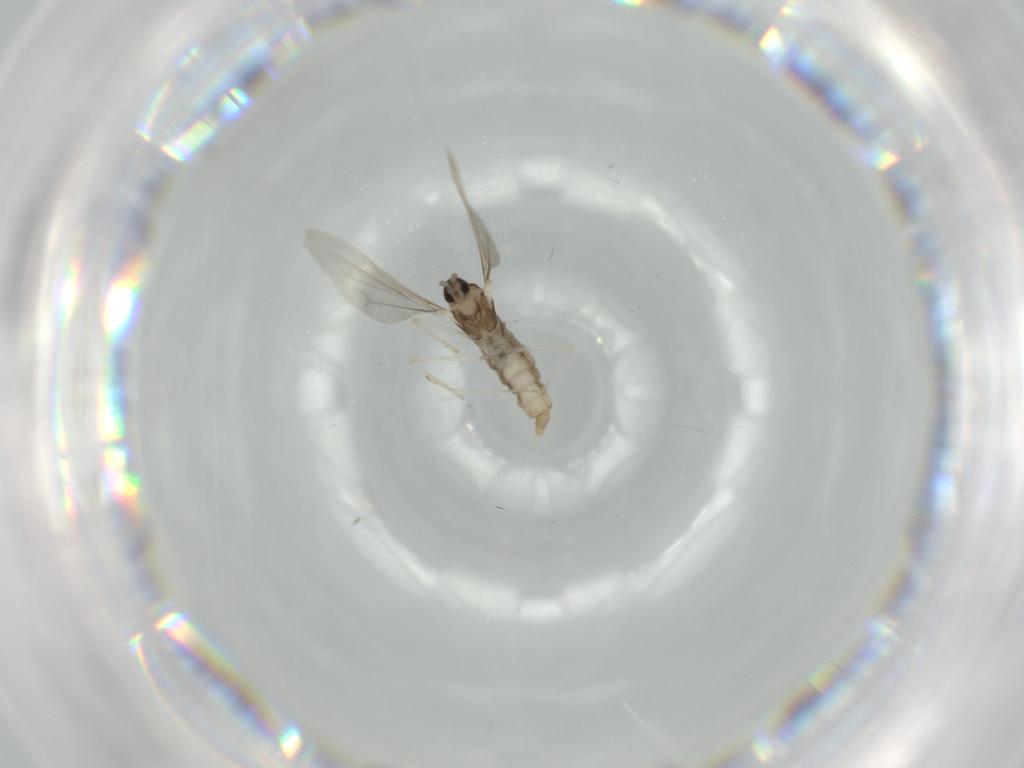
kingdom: Animalia
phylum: Arthropoda
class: Insecta
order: Diptera
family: Cecidomyiidae
